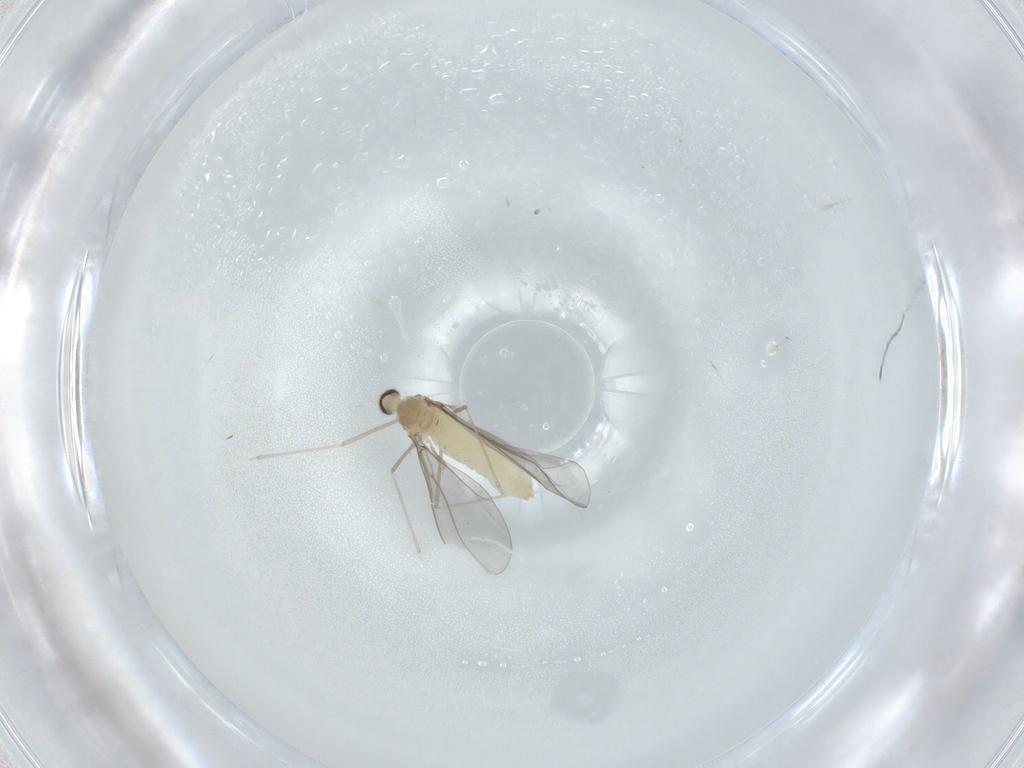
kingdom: Animalia
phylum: Arthropoda
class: Insecta
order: Diptera
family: Cecidomyiidae
